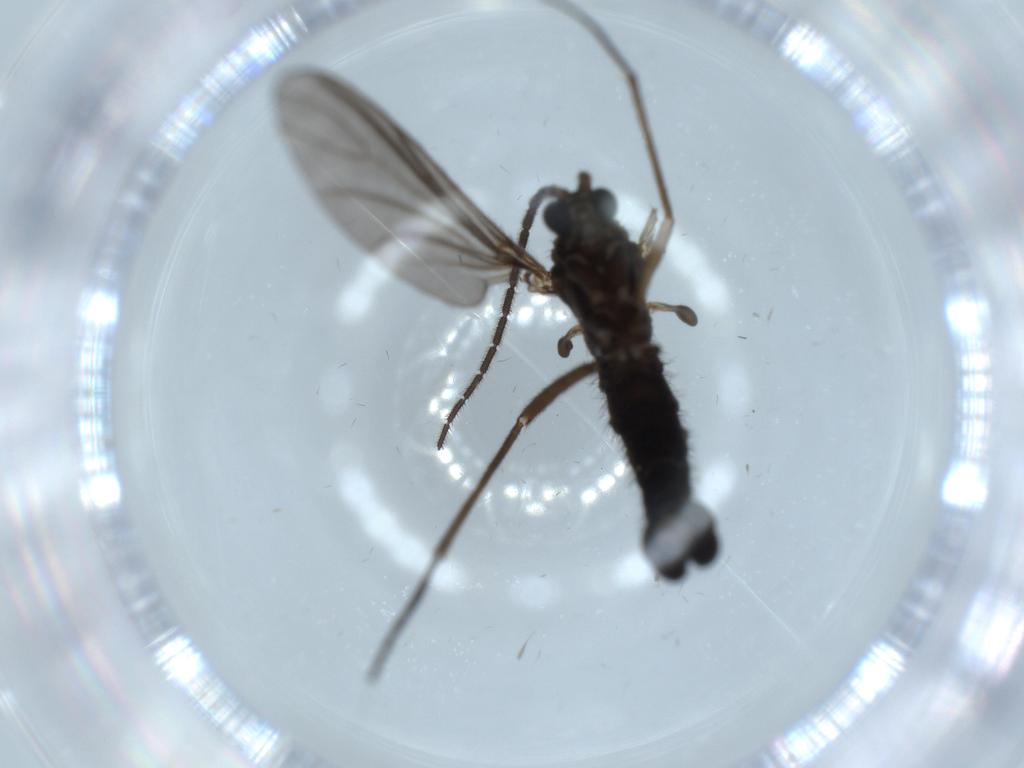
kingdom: Animalia
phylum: Arthropoda
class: Insecta
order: Diptera
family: Sciaridae
